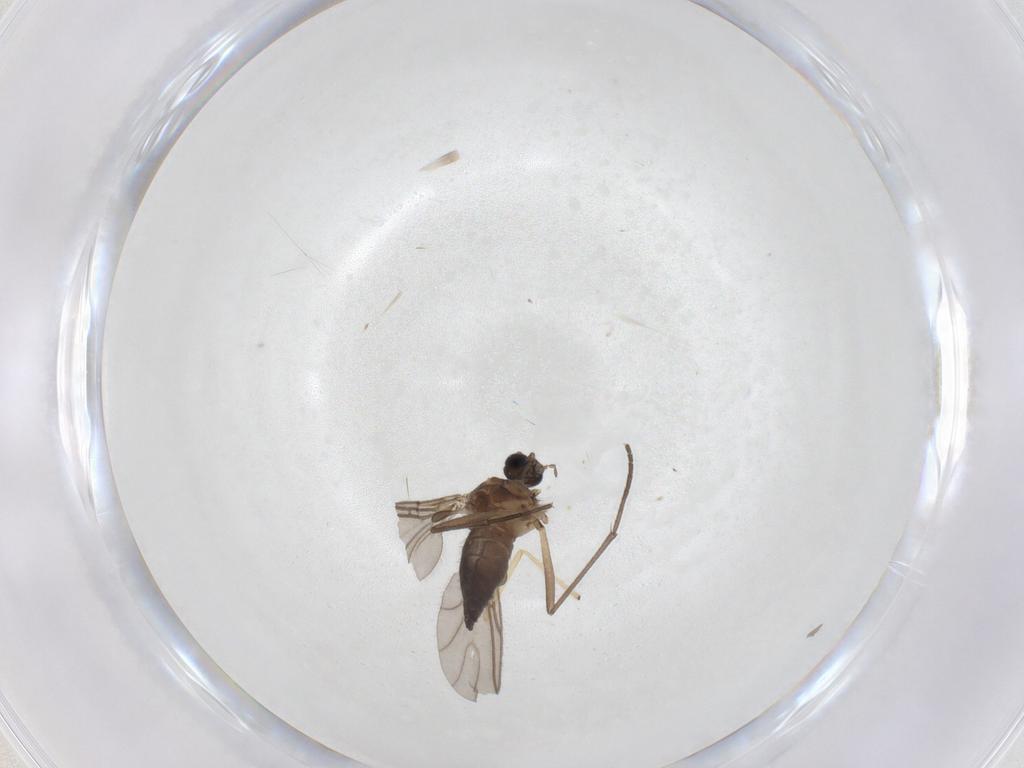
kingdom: Animalia
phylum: Arthropoda
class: Insecta
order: Diptera
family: Sciaridae
